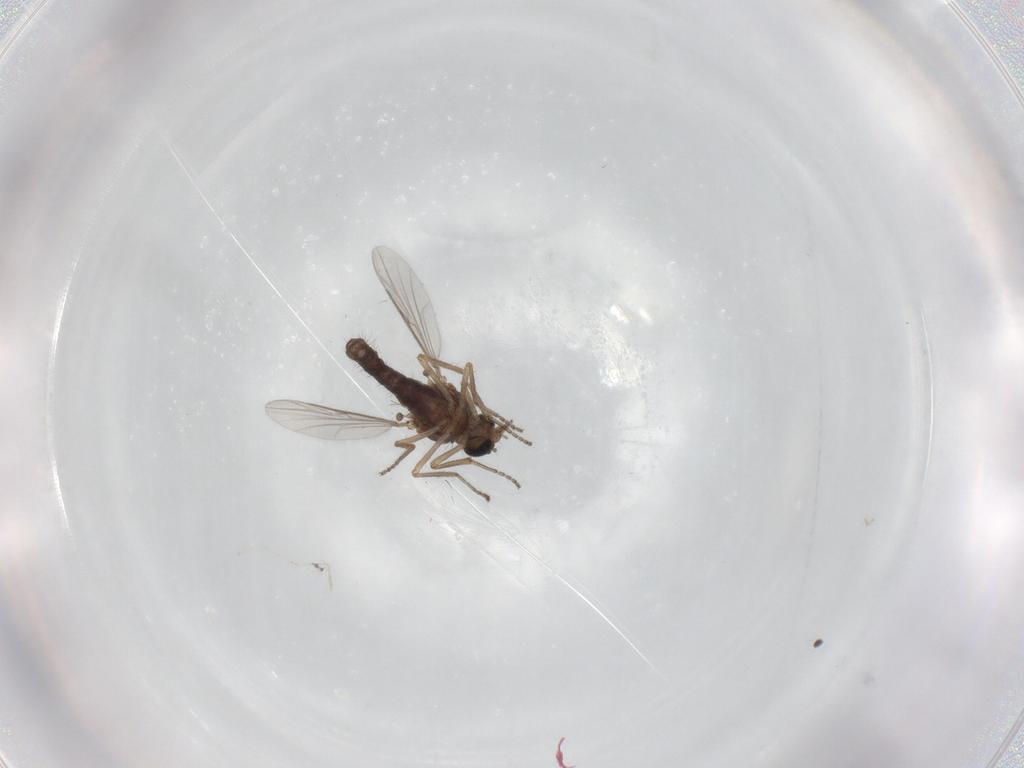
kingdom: Animalia
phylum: Arthropoda
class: Insecta
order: Diptera
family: Ceratopogonidae
